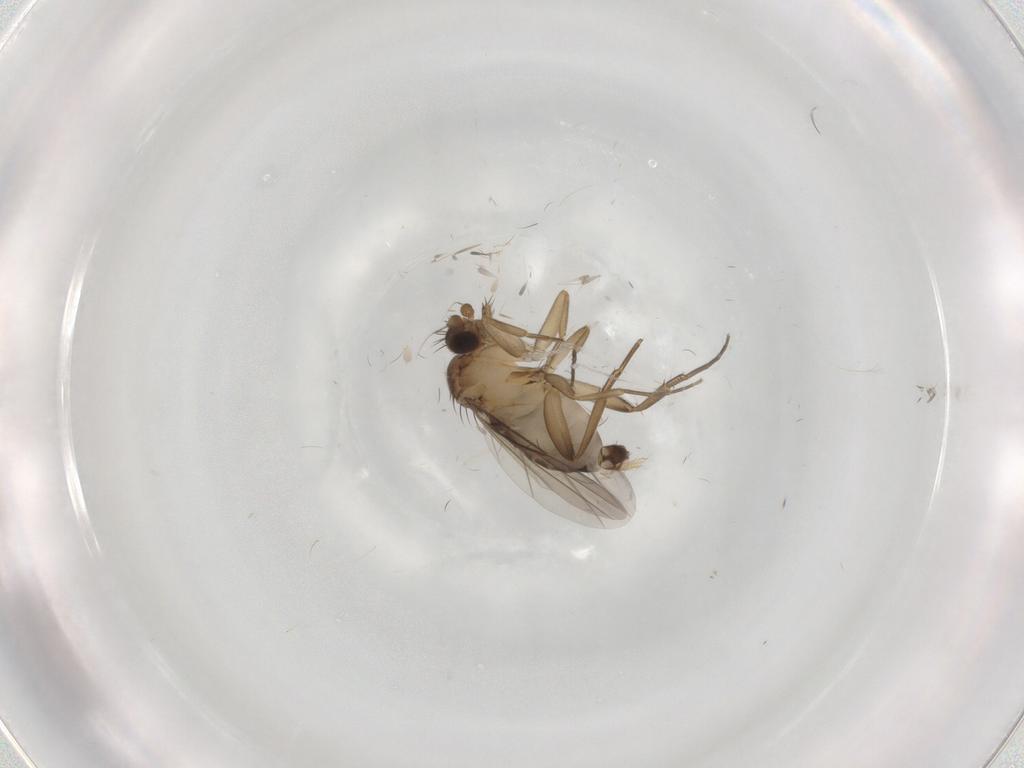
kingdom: Animalia
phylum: Arthropoda
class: Insecta
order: Diptera
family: Phoridae
